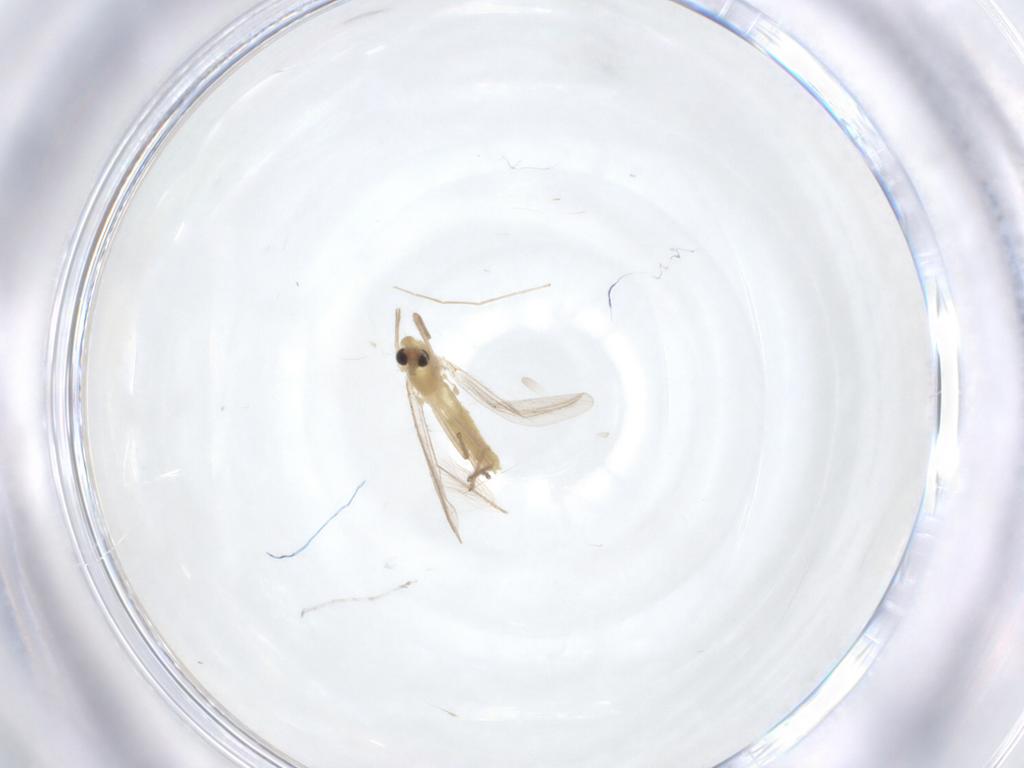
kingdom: Animalia
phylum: Arthropoda
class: Insecta
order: Diptera
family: Chironomidae
